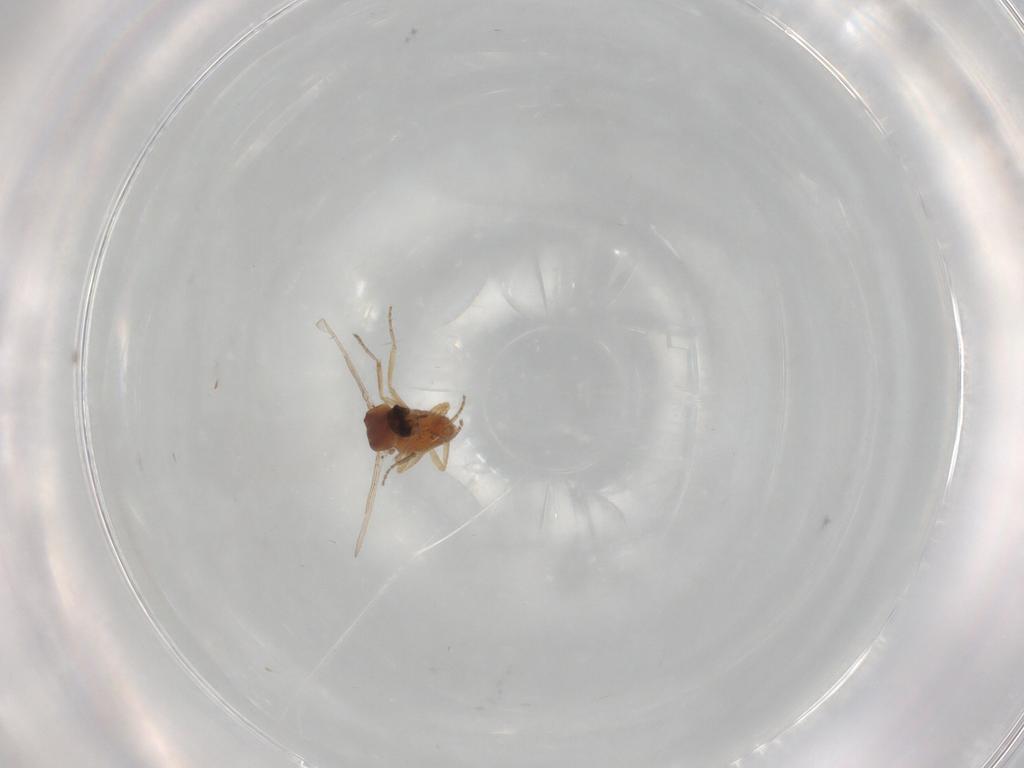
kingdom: Animalia
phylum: Arthropoda
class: Insecta
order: Diptera
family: Ceratopogonidae
